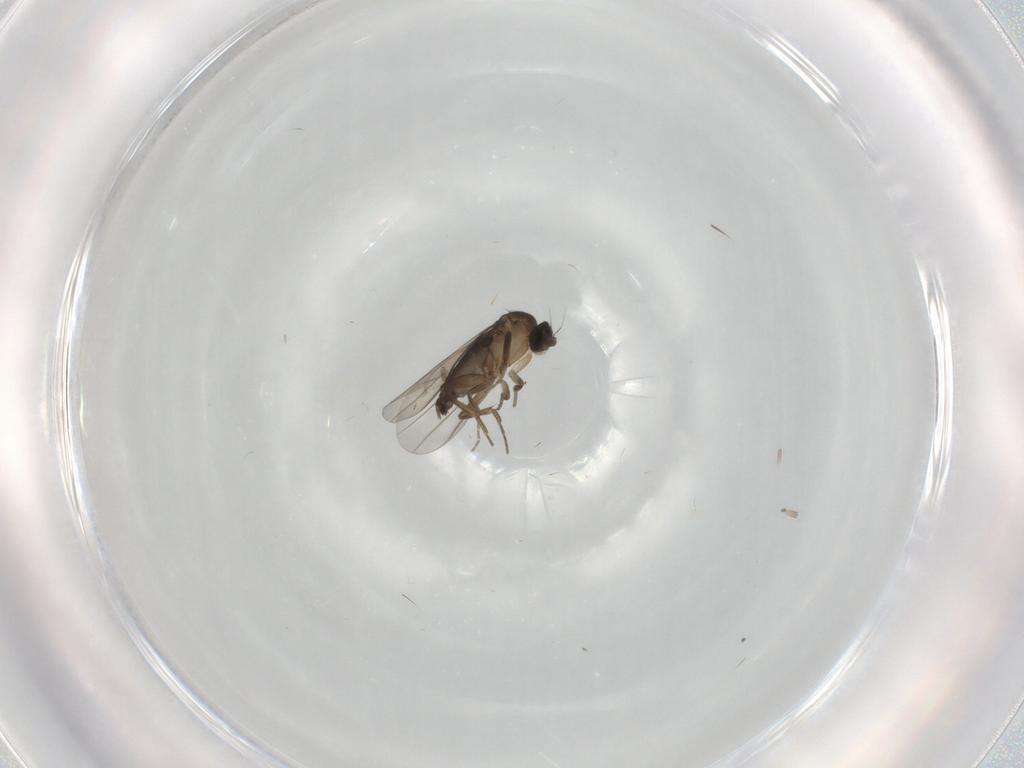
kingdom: Animalia
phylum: Arthropoda
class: Insecta
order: Diptera
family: Phoridae
